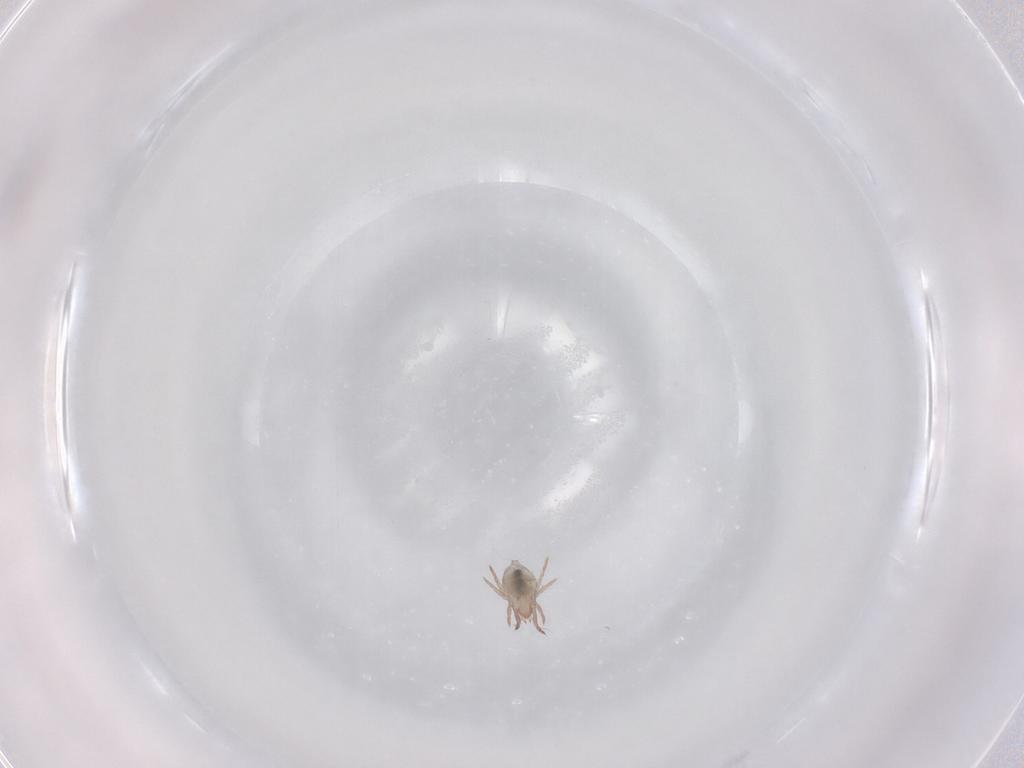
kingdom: Animalia
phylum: Arthropoda
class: Arachnida
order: Sarcoptiformes
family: Ceratoppiidae
